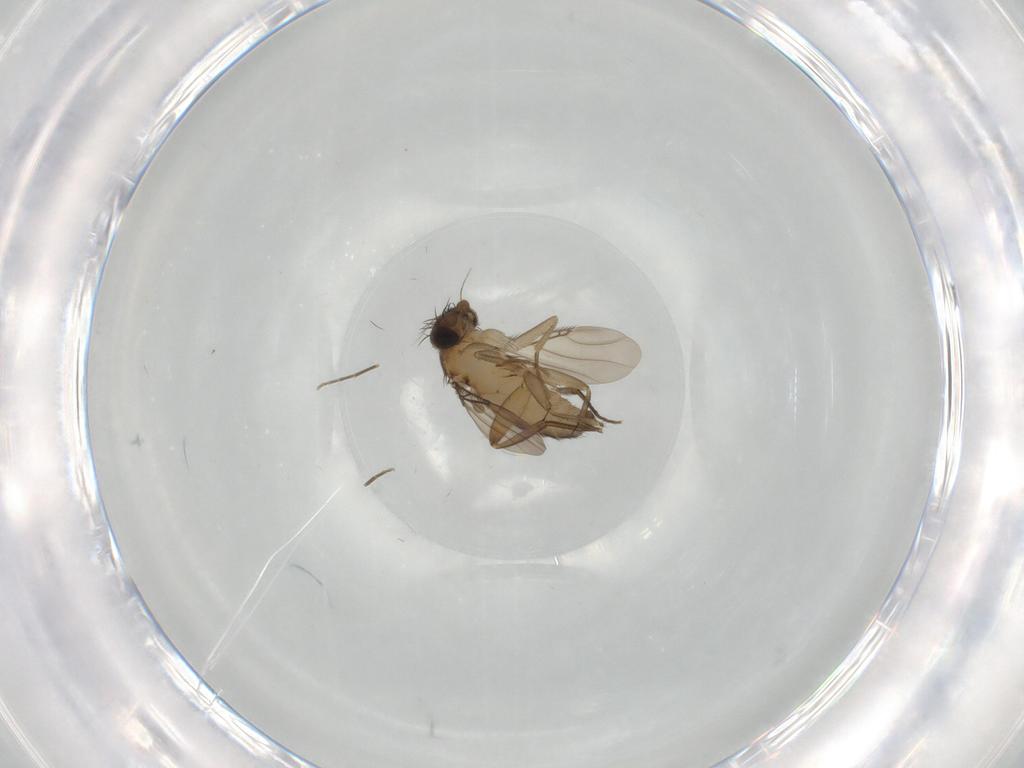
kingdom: Animalia
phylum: Arthropoda
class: Insecta
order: Diptera
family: Phoridae
